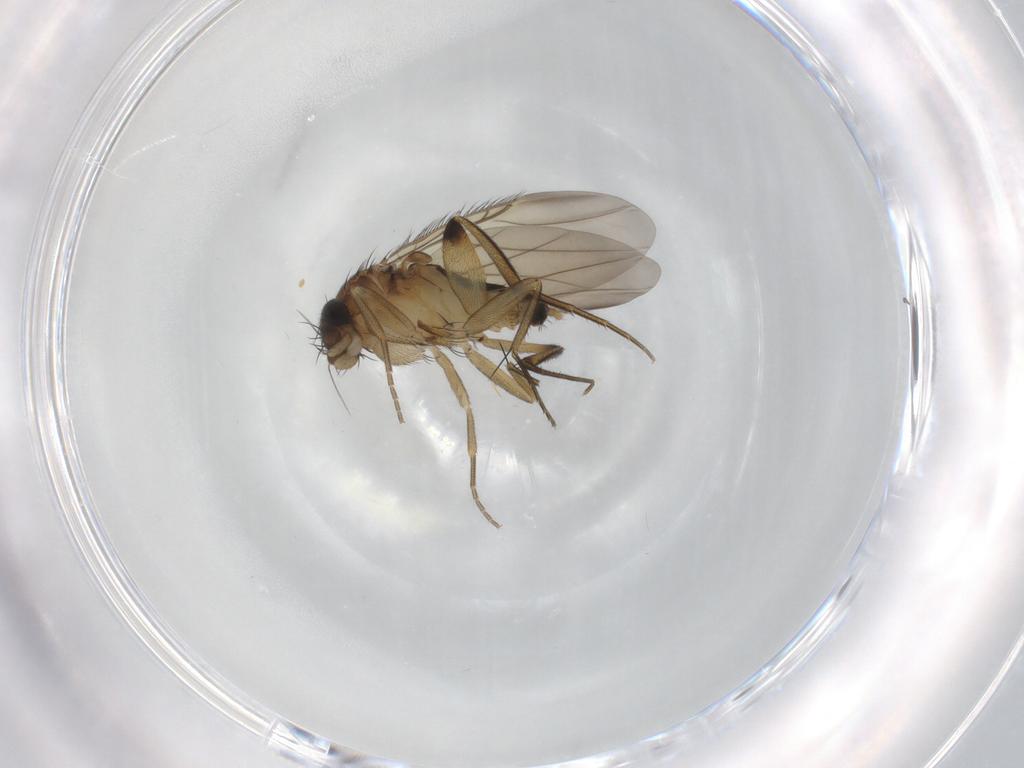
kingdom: Animalia
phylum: Arthropoda
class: Insecta
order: Diptera
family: Phoridae
